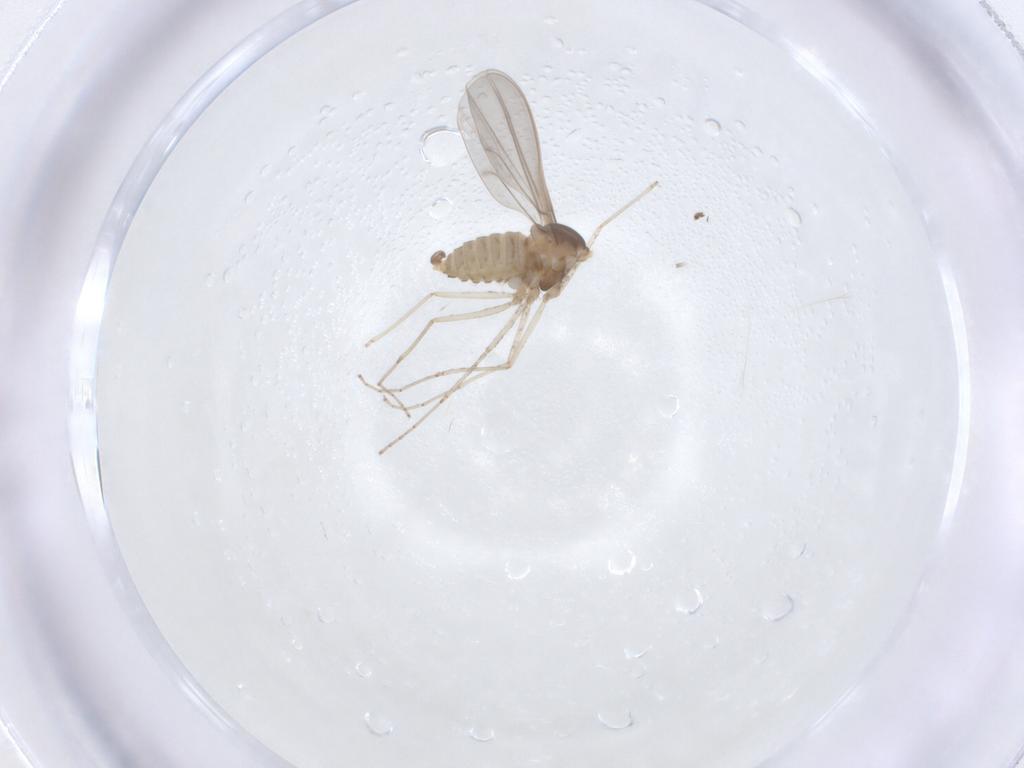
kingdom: Animalia
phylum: Arthropoda
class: Insecta
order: Diptera
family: Cecidomyiidae
